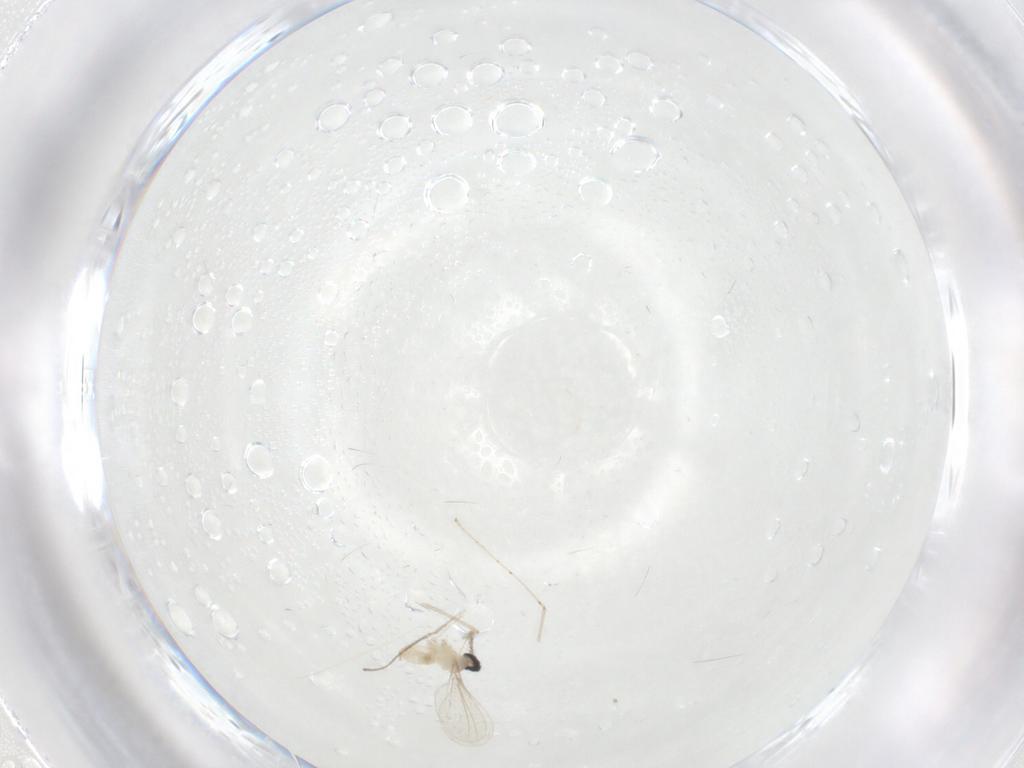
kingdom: Animalia
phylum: Arthropoda
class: Insecta
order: Diptera
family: Cecidomyiidae
